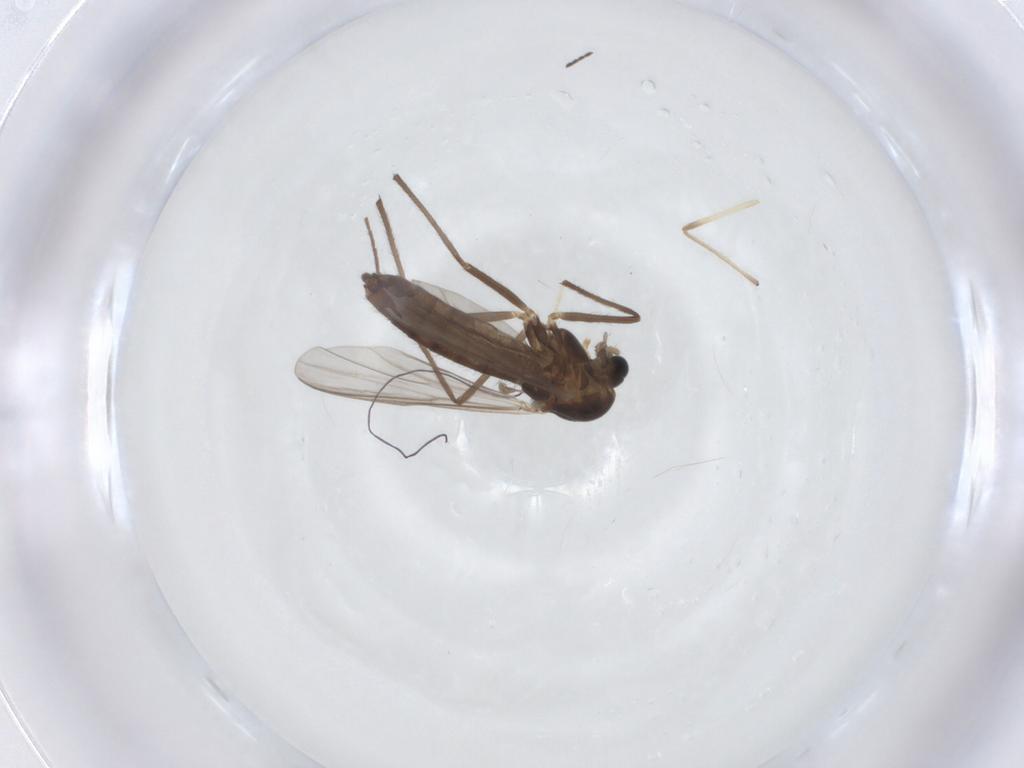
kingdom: Animalia
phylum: Arthropoda
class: Insecta
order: Diptera
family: Chironomidae
